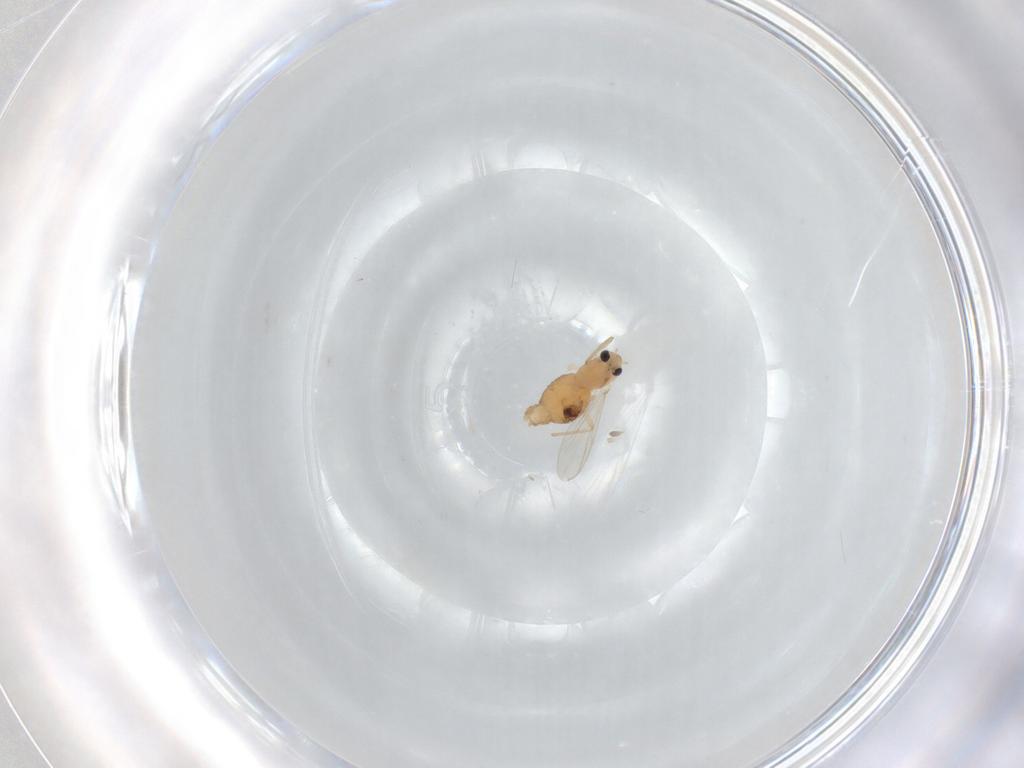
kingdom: Animalia
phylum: Arthropoda
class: Insecta
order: Diptera
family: Chironomidae
